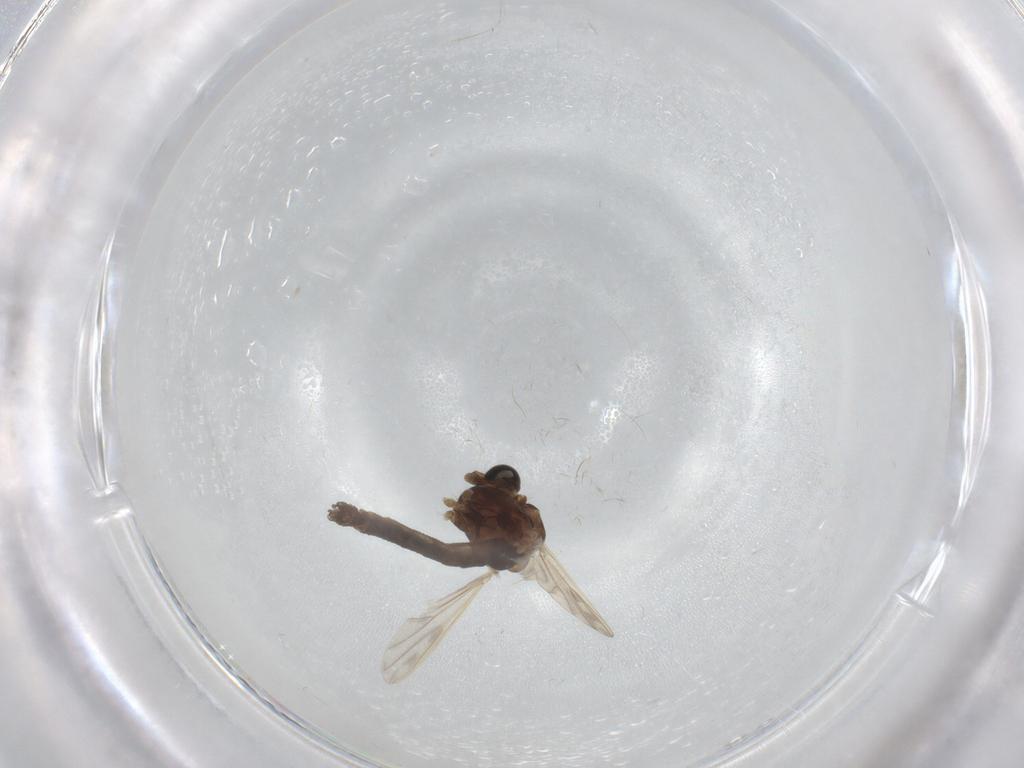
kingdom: Animalia
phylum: Arthropoda
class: Insecta
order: Diptera
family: Chironomidae
